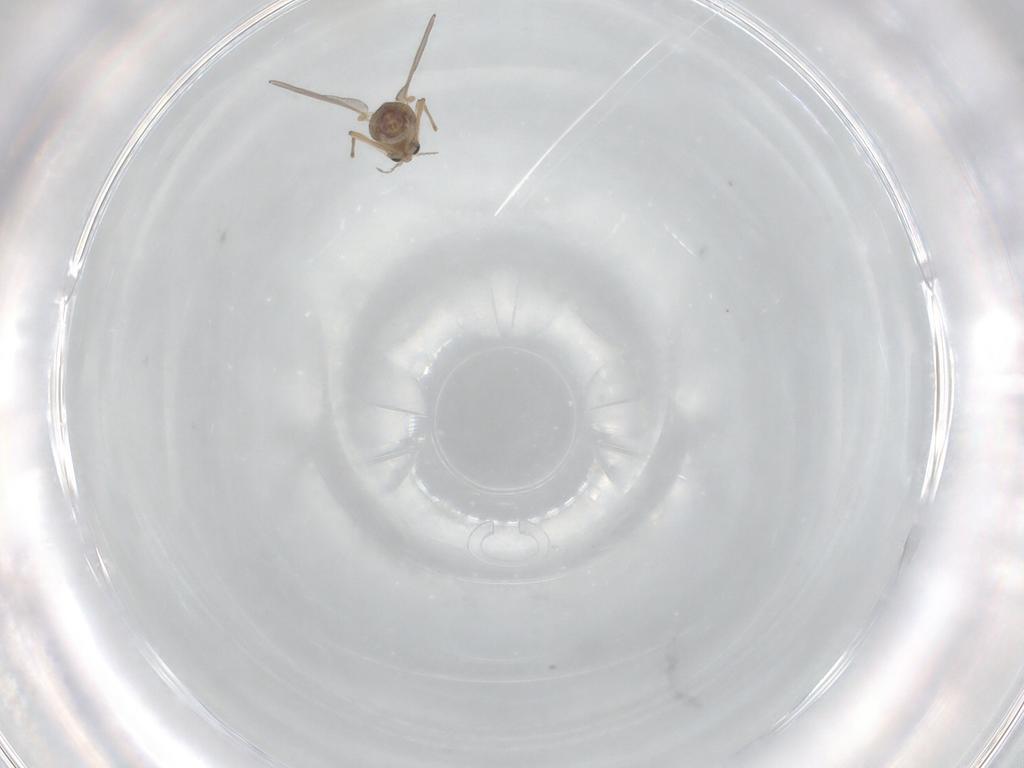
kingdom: Animalia
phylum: Arthropoda
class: Insecta
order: Diptera
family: Chironomidae
